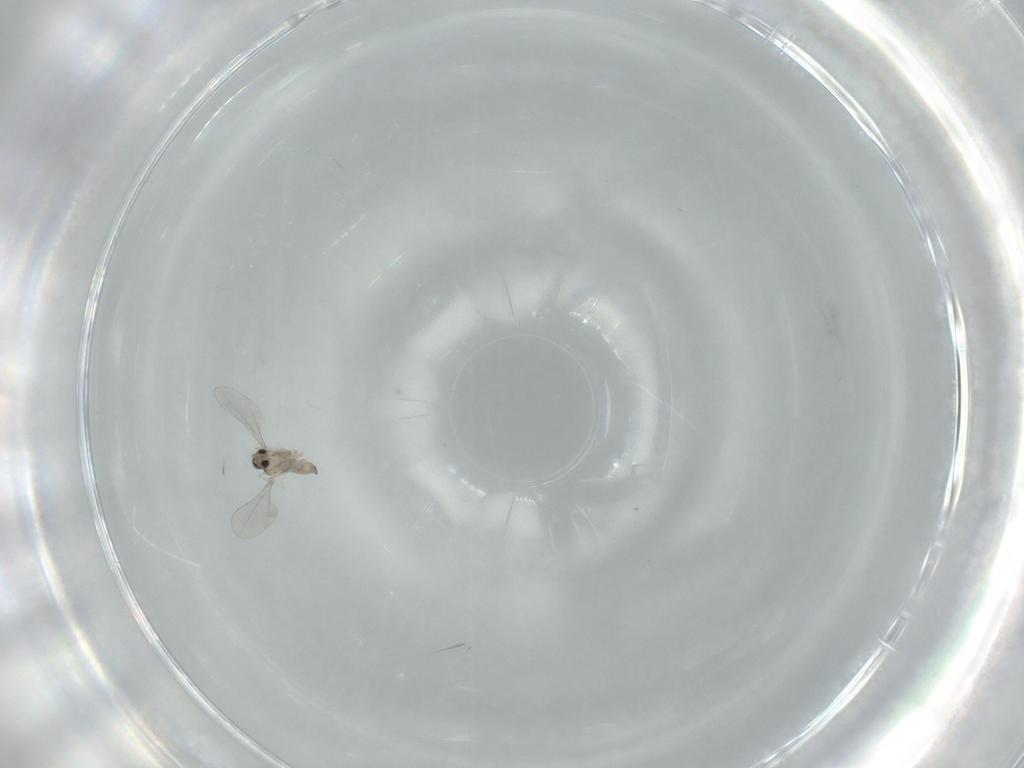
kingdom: Animalia
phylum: Arthropoda
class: Insecta
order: Diptera
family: Cecidomyiidae
